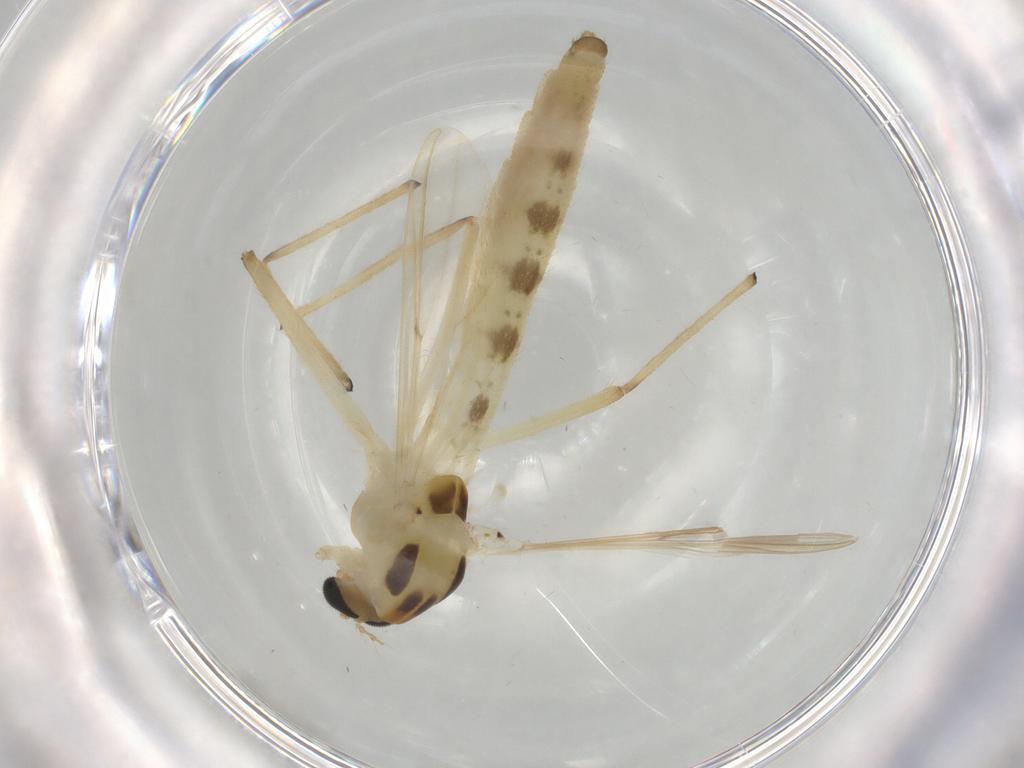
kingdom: Animalia
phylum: Arthropoda
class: Insecta
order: Diptera
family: Chironomidae
